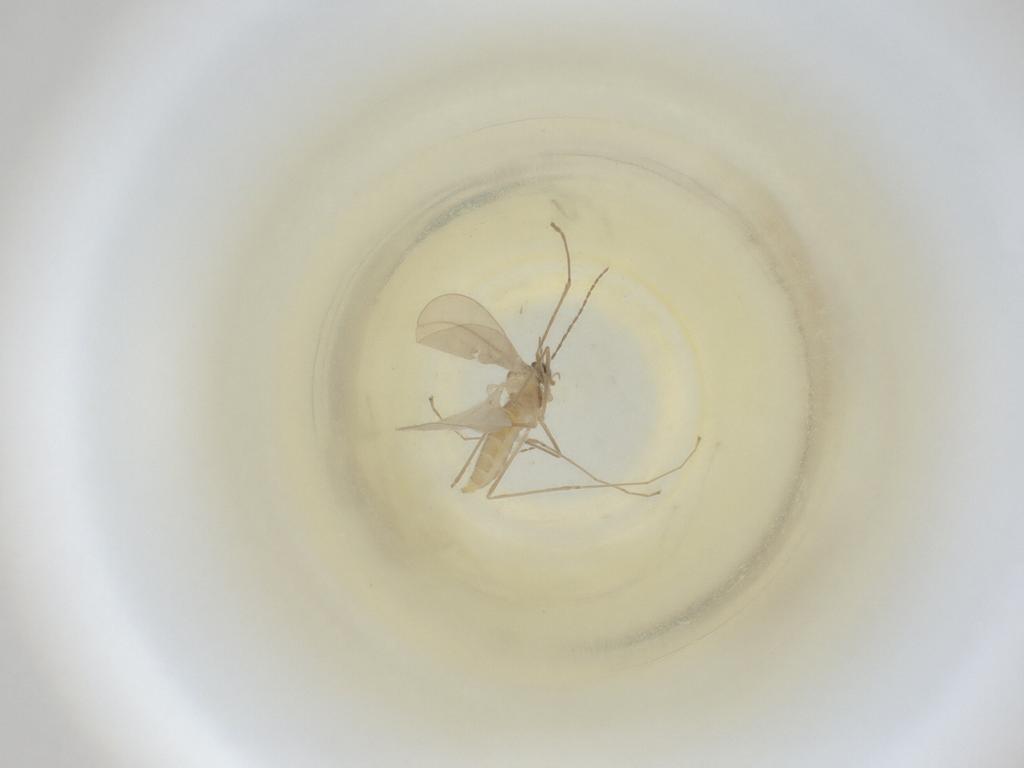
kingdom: Animalia
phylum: Arthropoda
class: Insecta
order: Diptera
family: Cecidomyiidae
